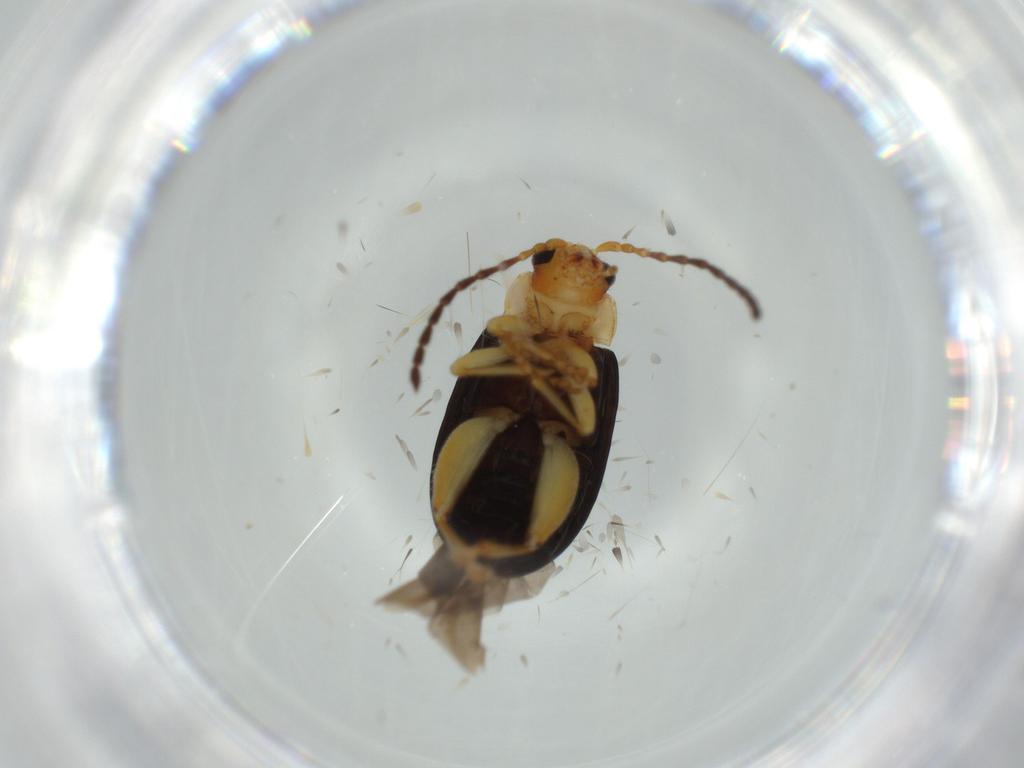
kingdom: Animalia
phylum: Arthropoda
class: Insecta
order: Coleoptera
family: Chrysomelidae
